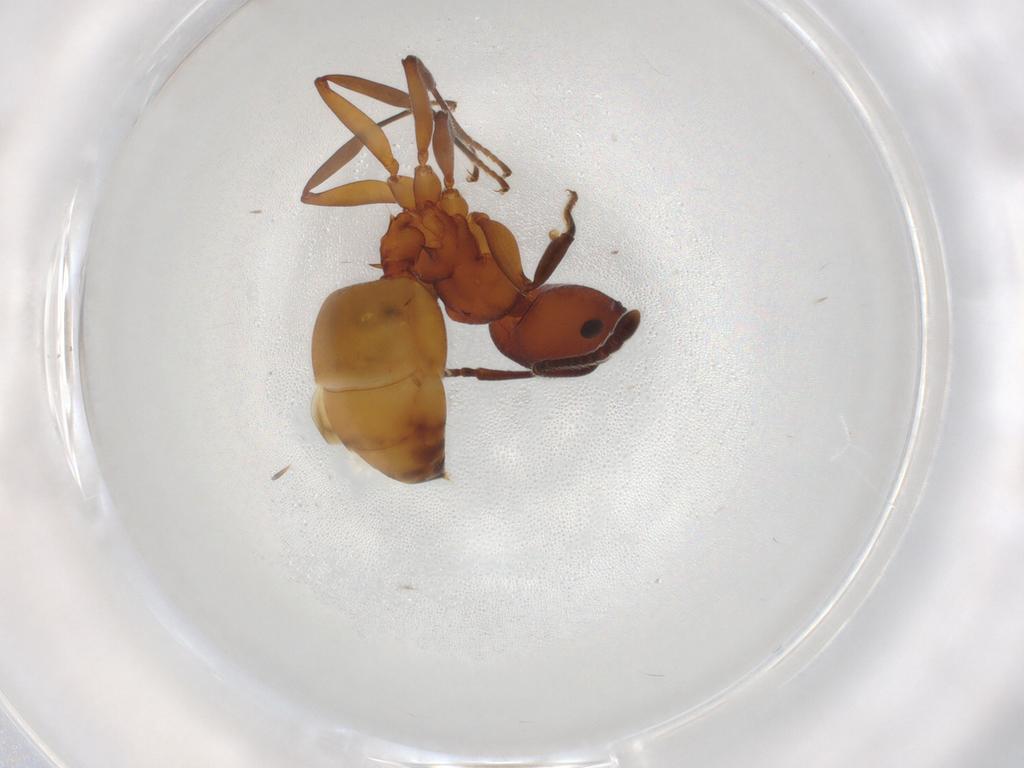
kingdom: Animalia
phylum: Arthropoda
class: Insecta
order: Hymenoptera
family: Formicidae
